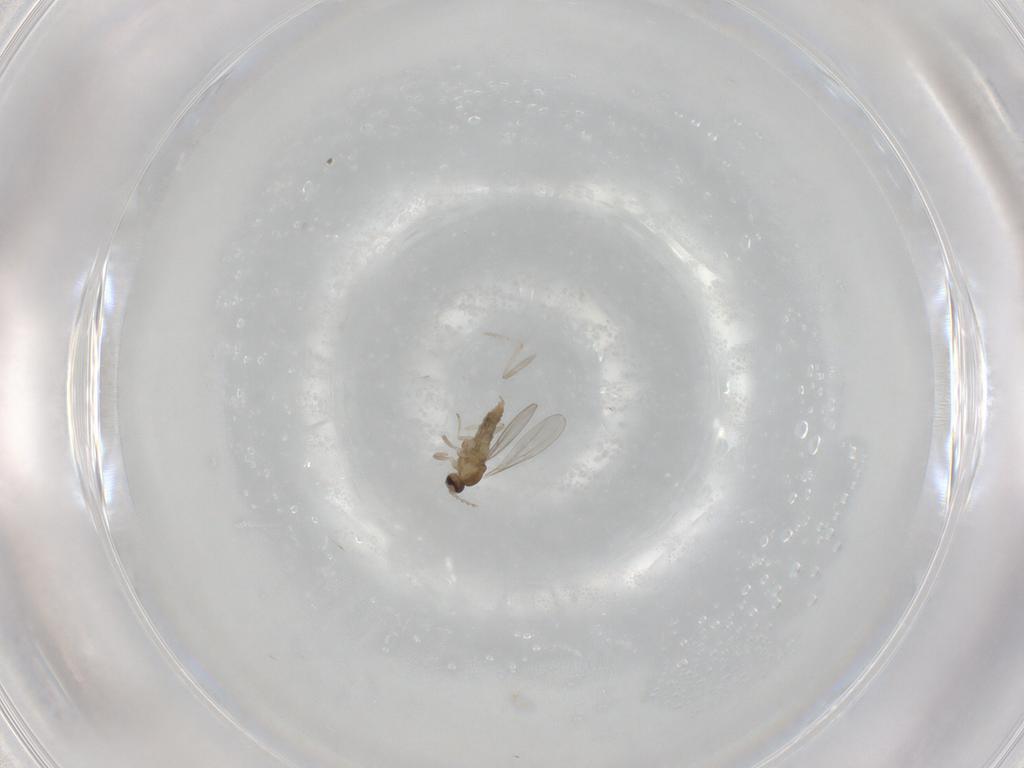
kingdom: Animalia
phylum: Arthropoda
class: Insecta
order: Diptera
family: Cecidomyiidae
